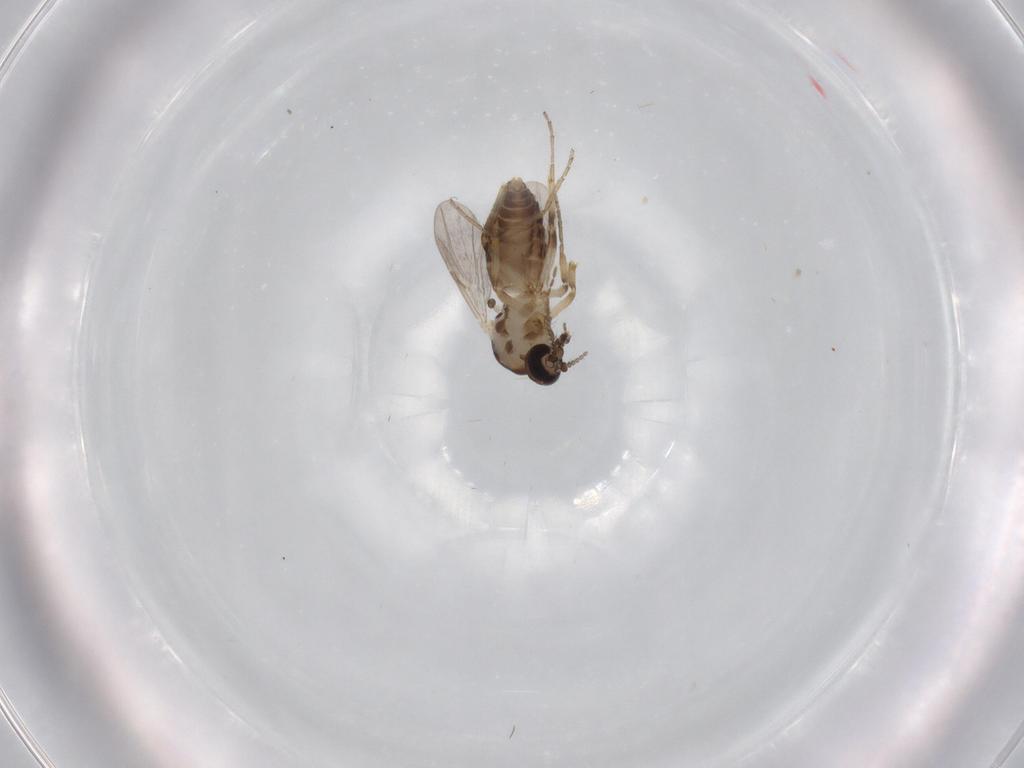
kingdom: Animalia
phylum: Arthropoda
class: Insecta
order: Diptera
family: Ceratopogonidae
